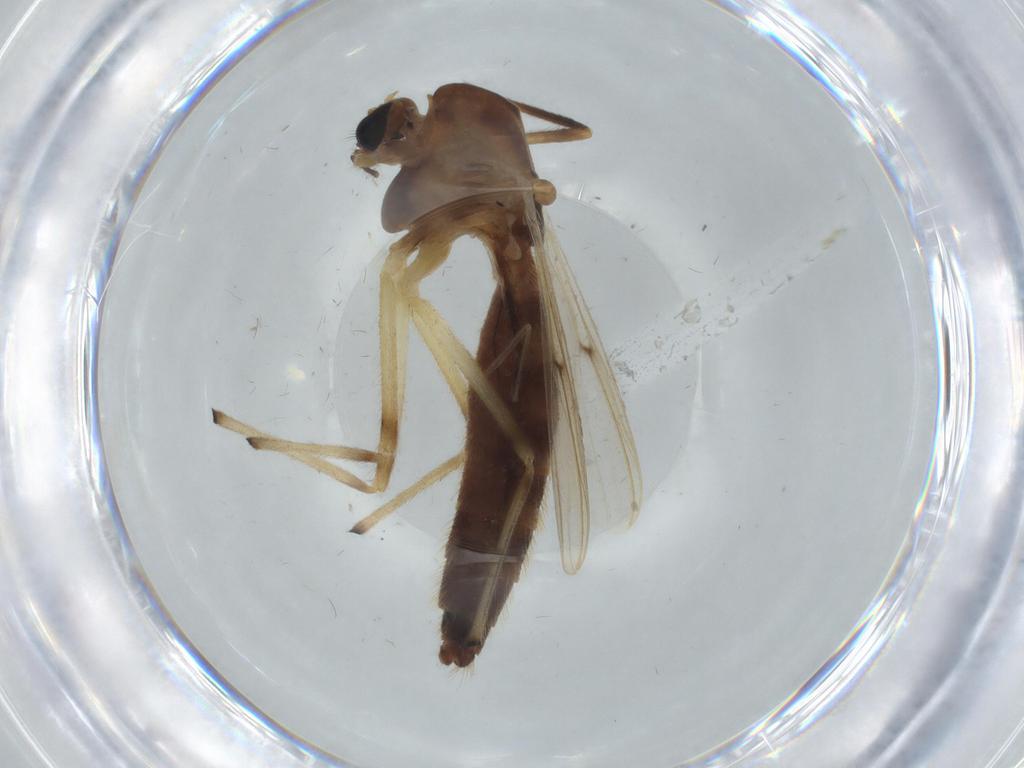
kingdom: Animalia
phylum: Arthropoda
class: Insecta
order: Diptera
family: Chironomidae
